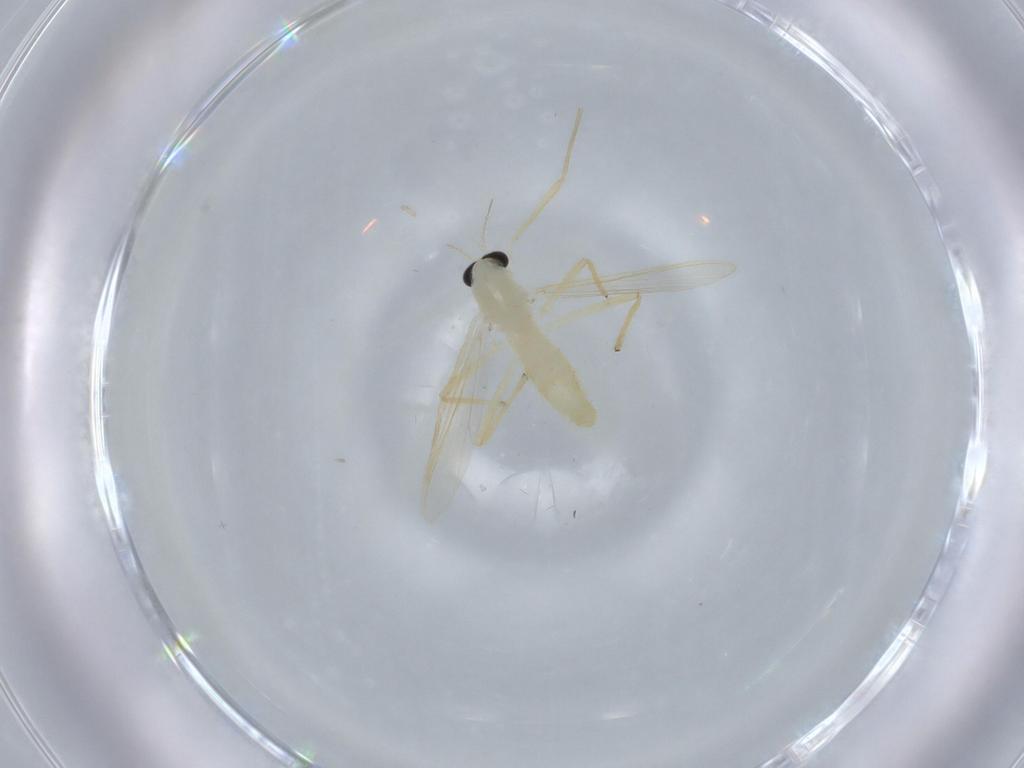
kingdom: Animalia
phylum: Arthropoda
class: Insecta
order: Diptera
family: Chironomidae
